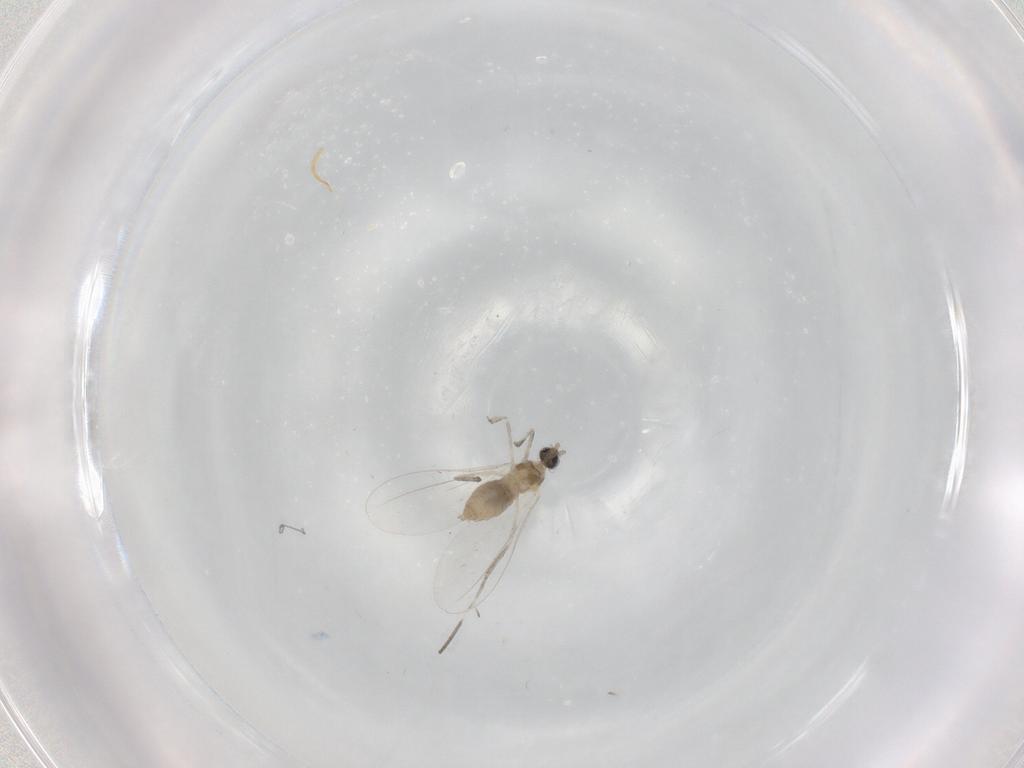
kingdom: Animalia
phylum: Arthropoda
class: Insecta
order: Diptera
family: Cecidomyiidae
